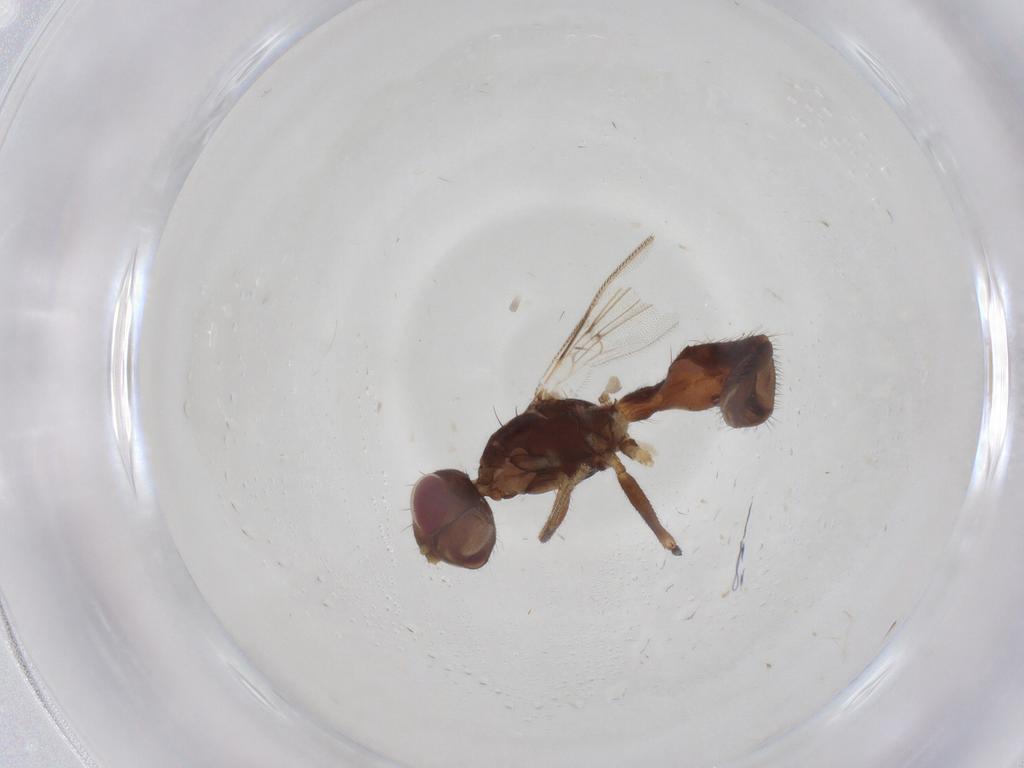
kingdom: Animalia
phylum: Arthropoda
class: Insecta
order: Diptera
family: Richardiidae
